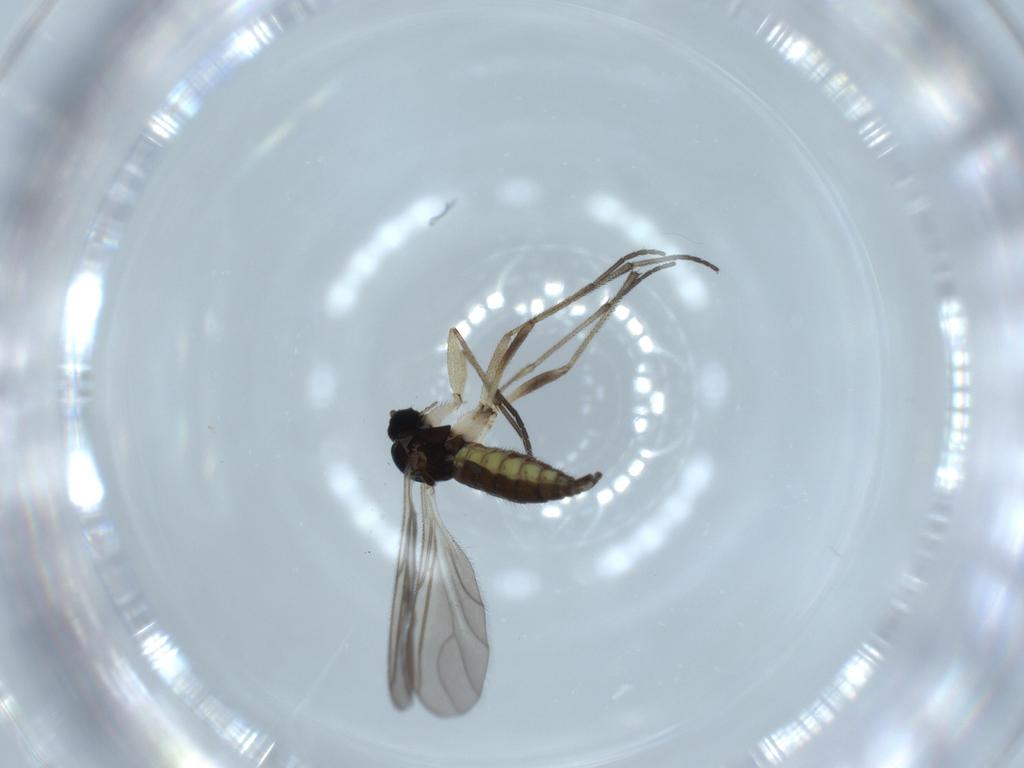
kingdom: Animalia
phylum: Arthropoda
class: Insecta
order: Diptera
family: Sciaridae
